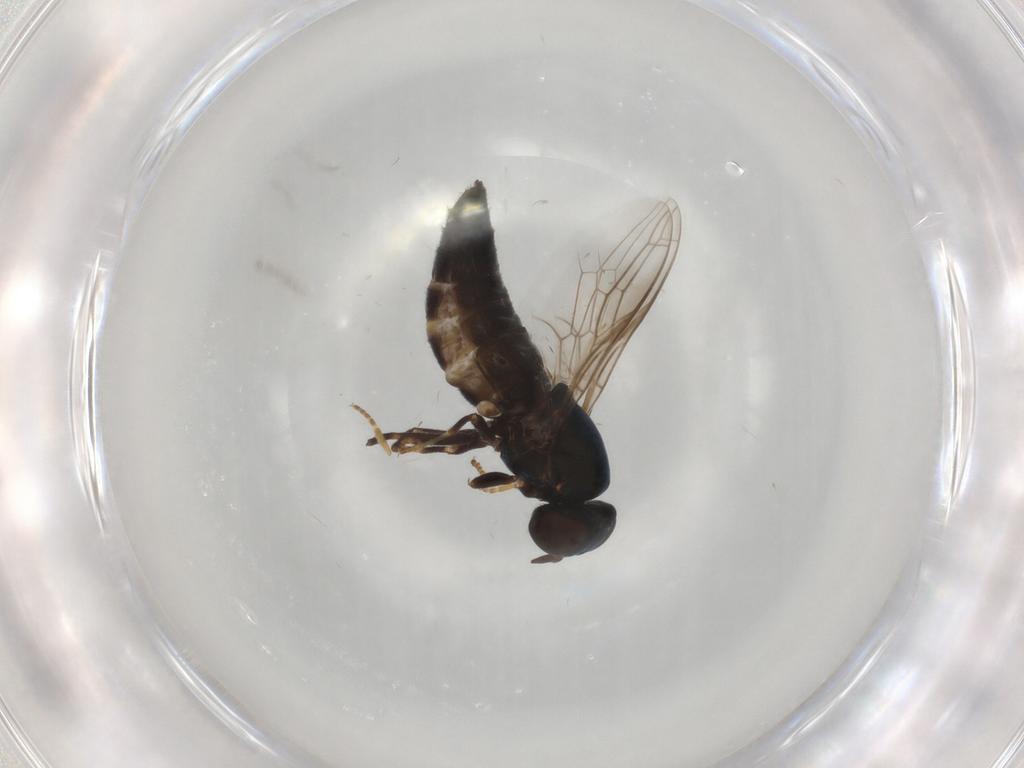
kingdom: Animalia
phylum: Arthropoda
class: Insecta
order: Diptera
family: Scenopinidae
